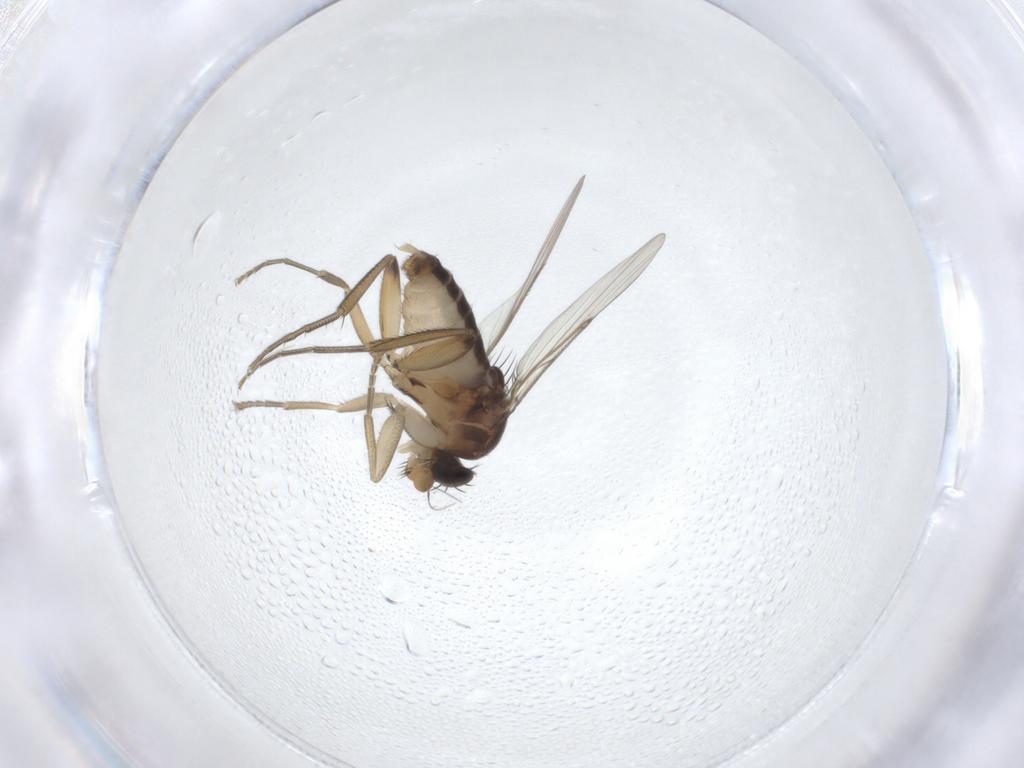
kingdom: Animalia
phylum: Arthropoda
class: Insecta
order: Diptera
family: Phoridae
